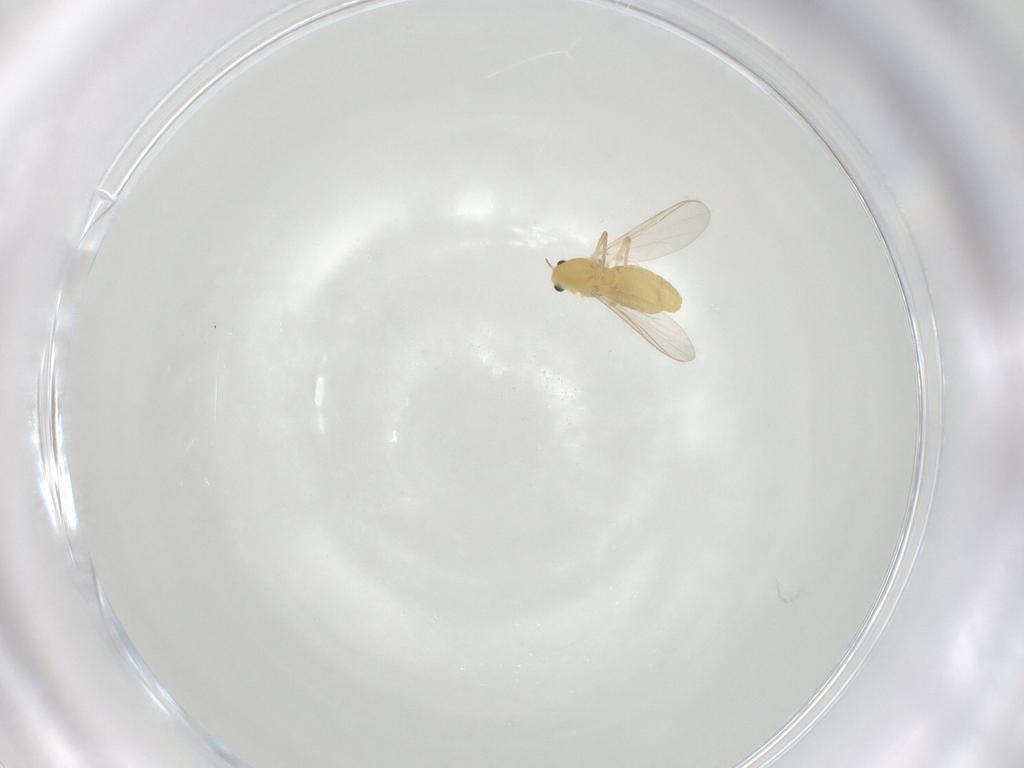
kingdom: Animalia
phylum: Arthropoda
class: Insecta
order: Diptera
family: Chironomidae
